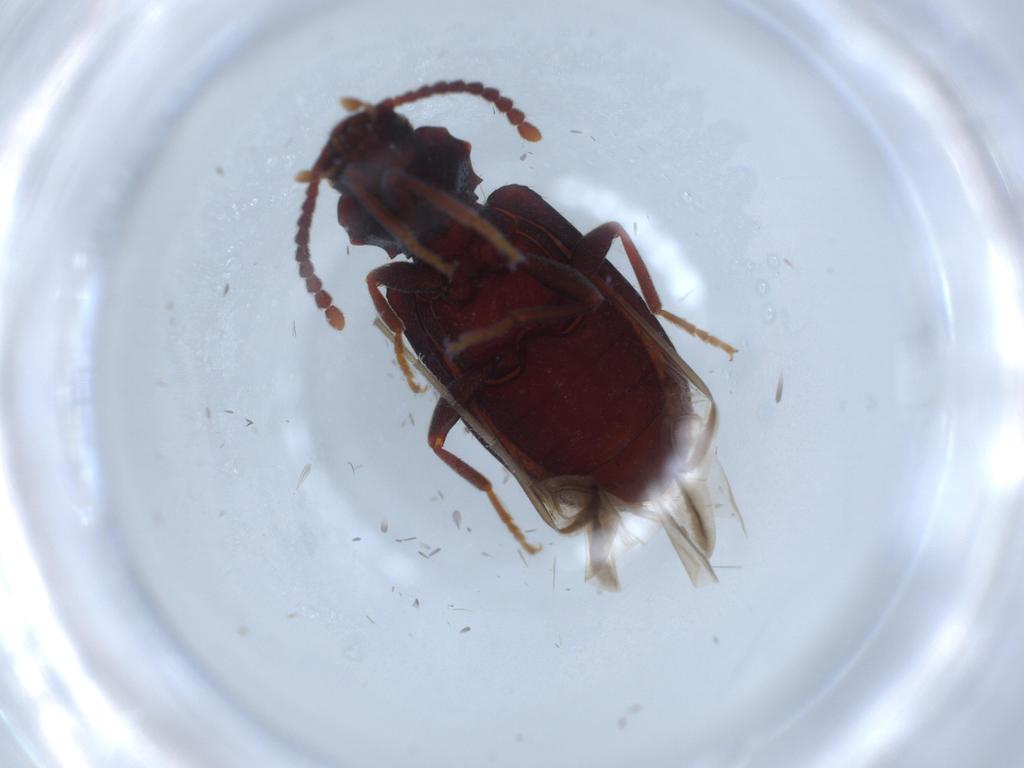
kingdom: Animalia
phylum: Arthropoda
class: Insecta
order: Coleoptera
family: Tenebrionidae
